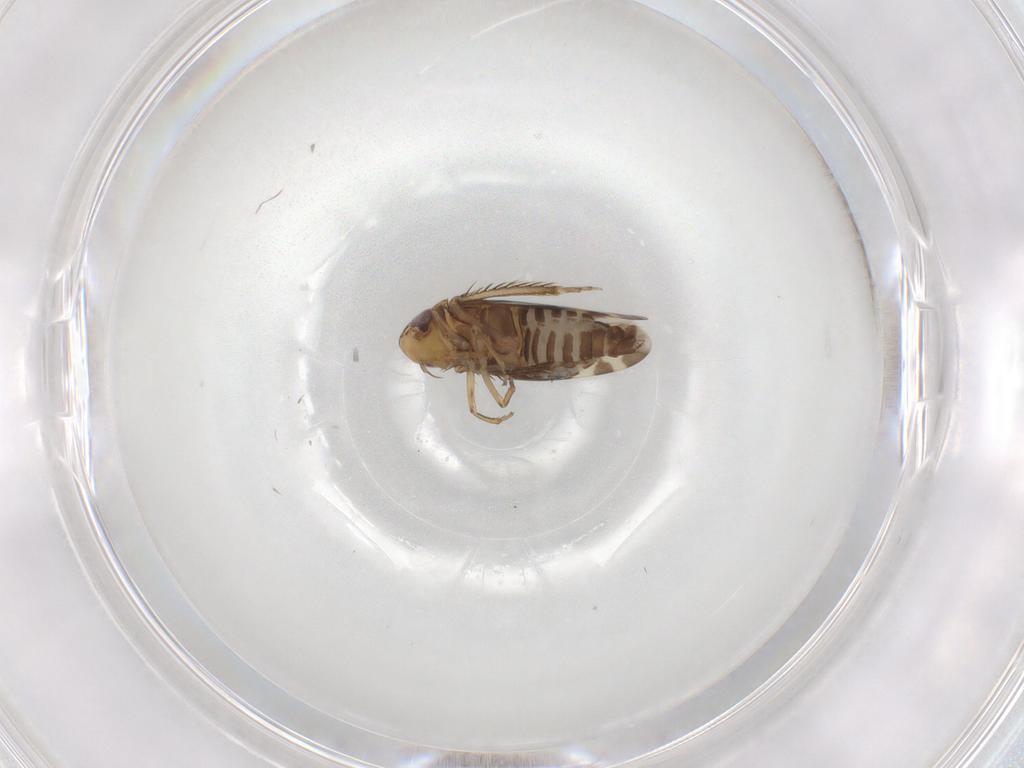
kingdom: Animalia
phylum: Arthropoda
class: Insecta
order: Hemiptera
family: Cicadellidae
